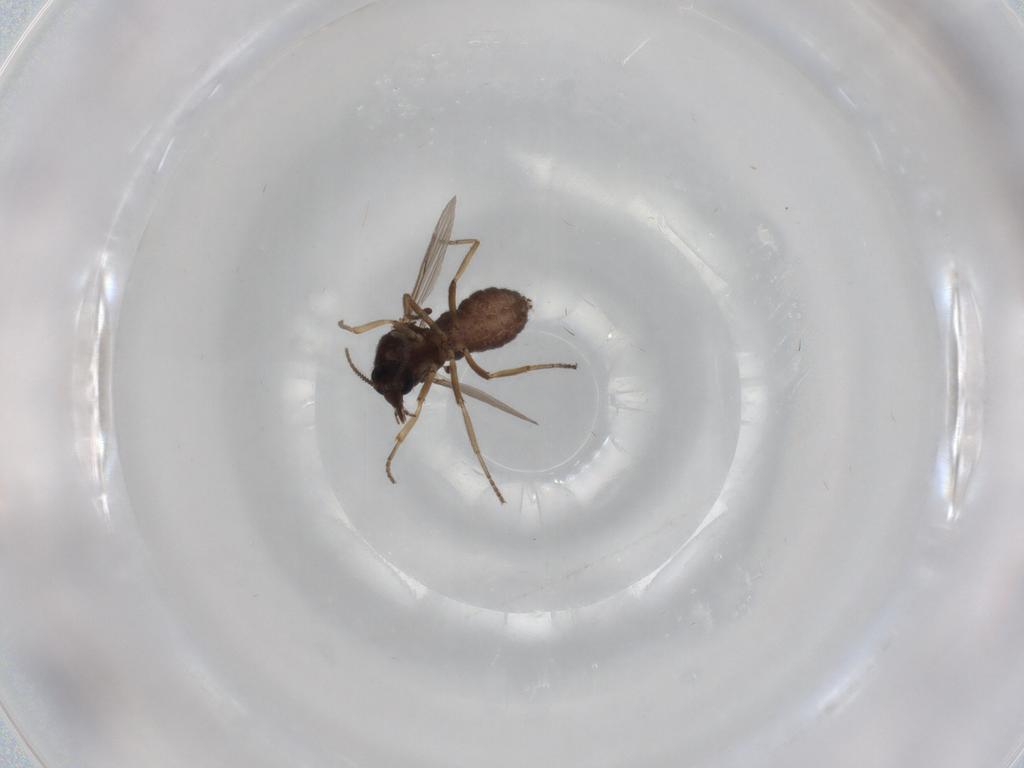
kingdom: Animalia
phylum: Arthropoda
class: Insecta
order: Diptera
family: Ceratopogonidae
